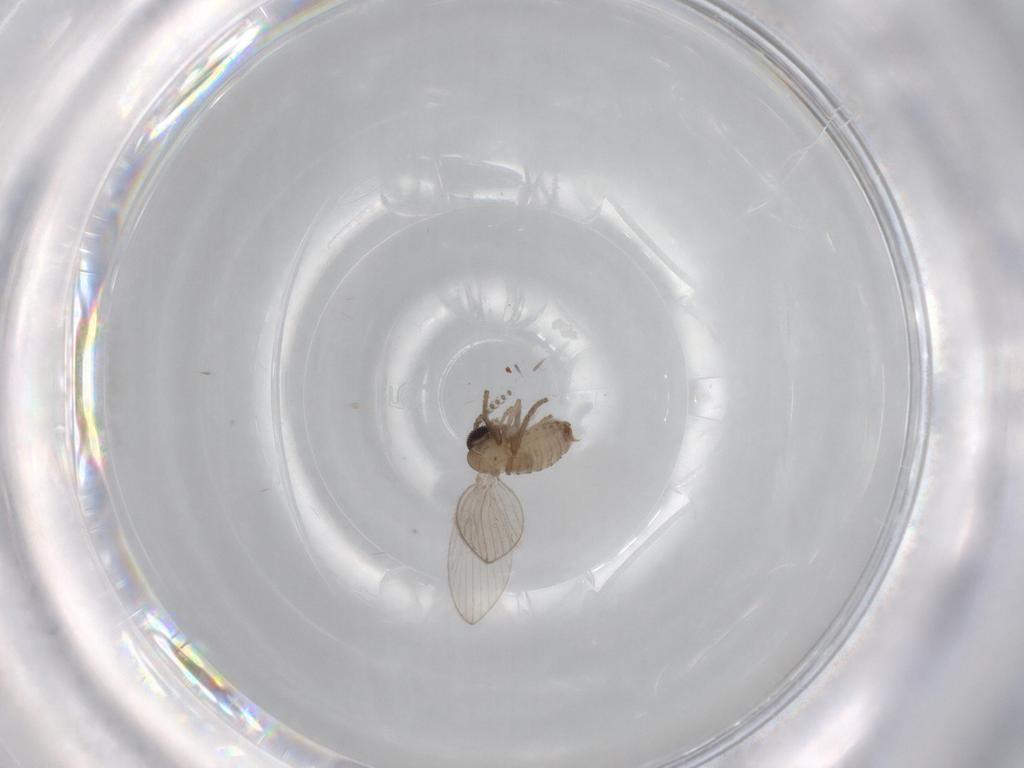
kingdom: Animalia
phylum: Arthropoda
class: Insecta
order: Diptera
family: Psychodidae
